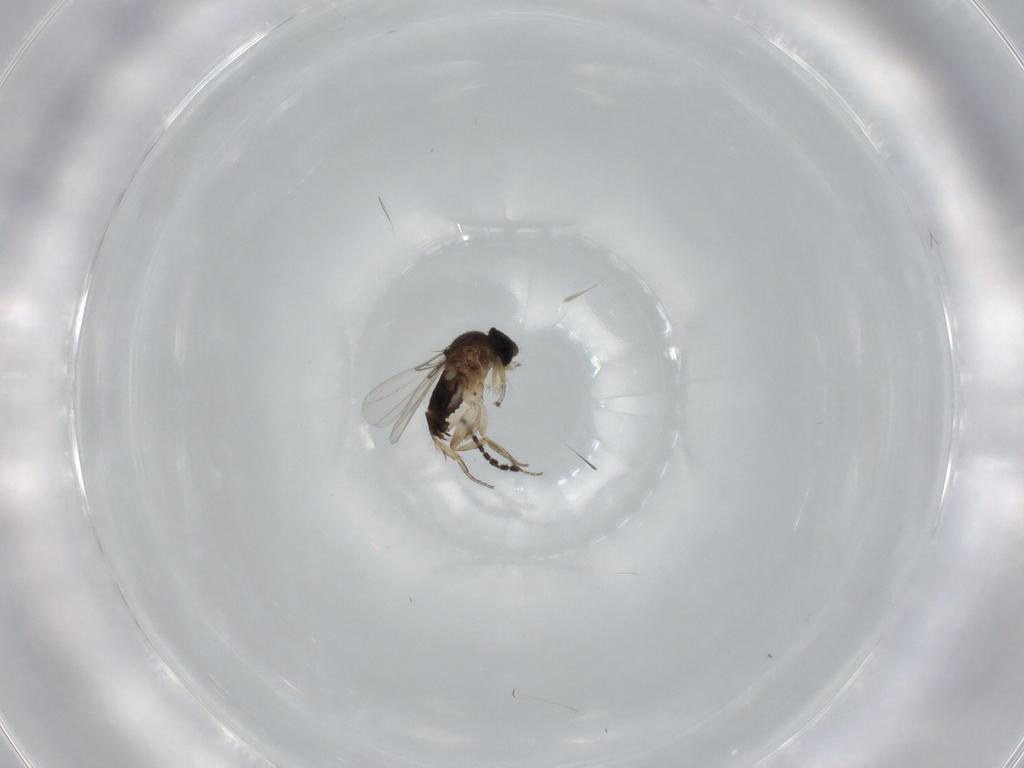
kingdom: Animalia
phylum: Arthropoda
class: Insecta
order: Diptera
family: Sciaridae
